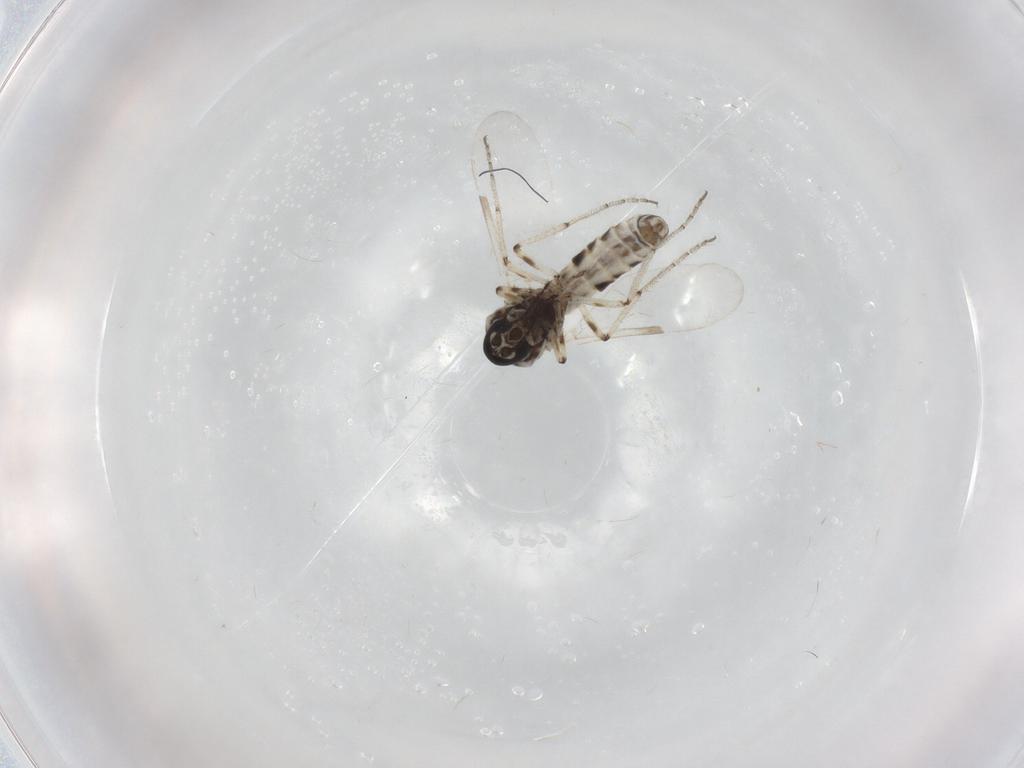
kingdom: Animalia
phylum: Arthropoda
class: Insecta
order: Diptera
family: Ceratopogonidae
